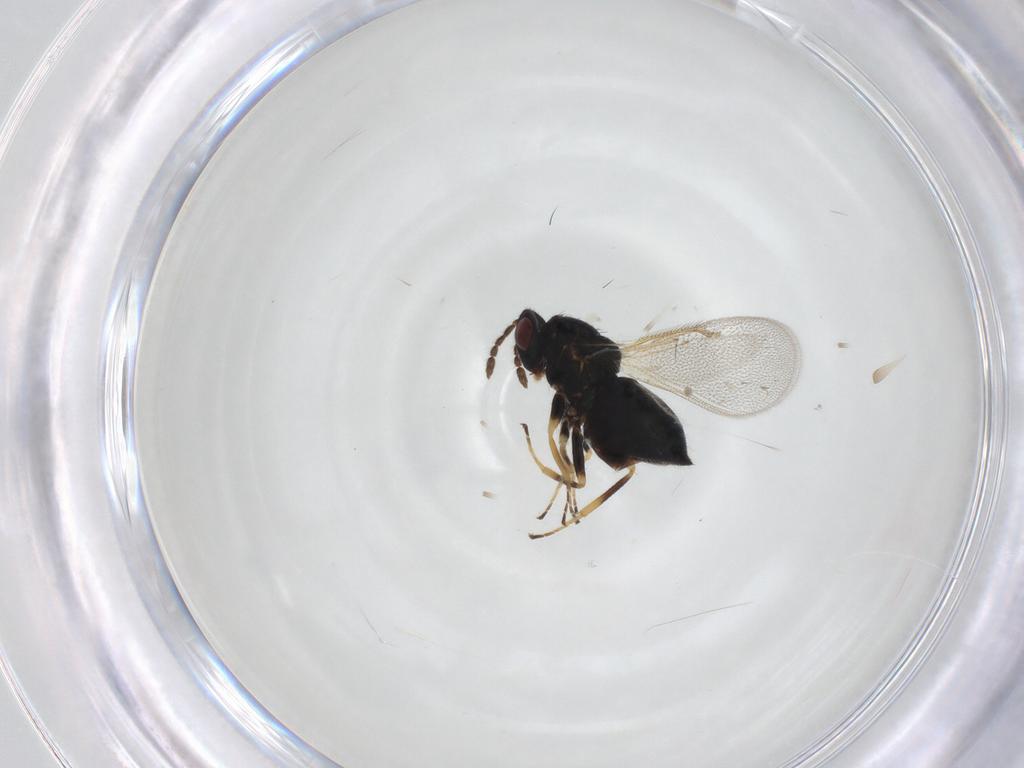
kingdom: Animalia
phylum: Arthropoda
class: Insecta
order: Hymenoptera
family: Eulophidae
